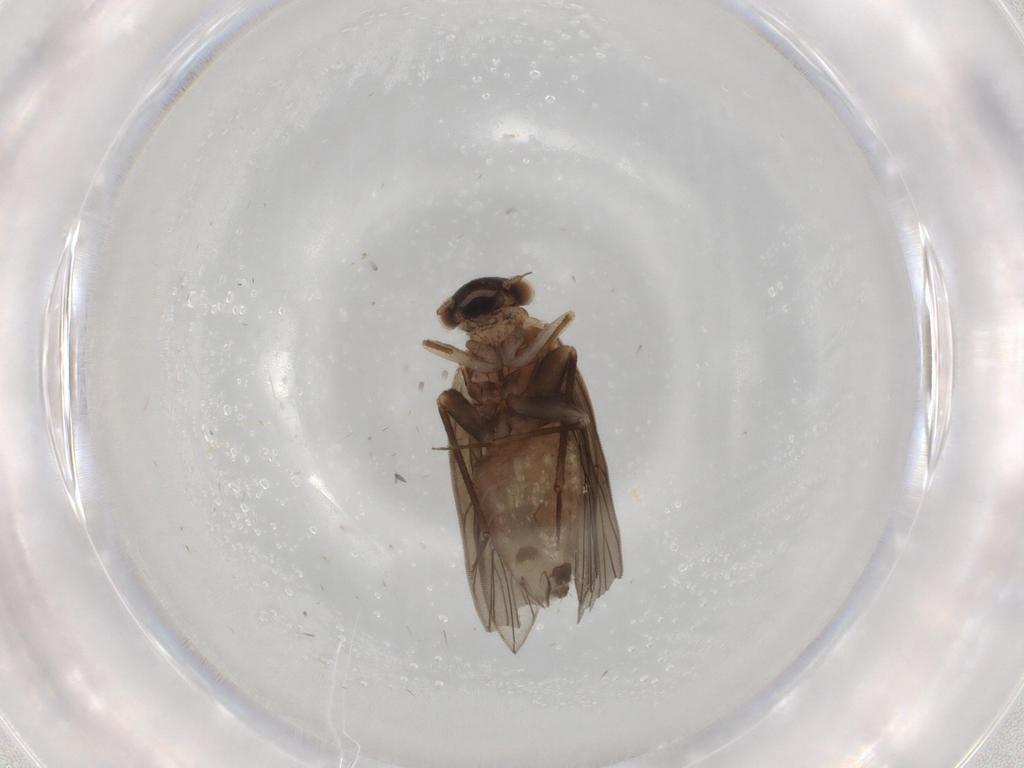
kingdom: Animalia
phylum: Arthropoda
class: Insecta
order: Psocodea
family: Lepidopsocidae
